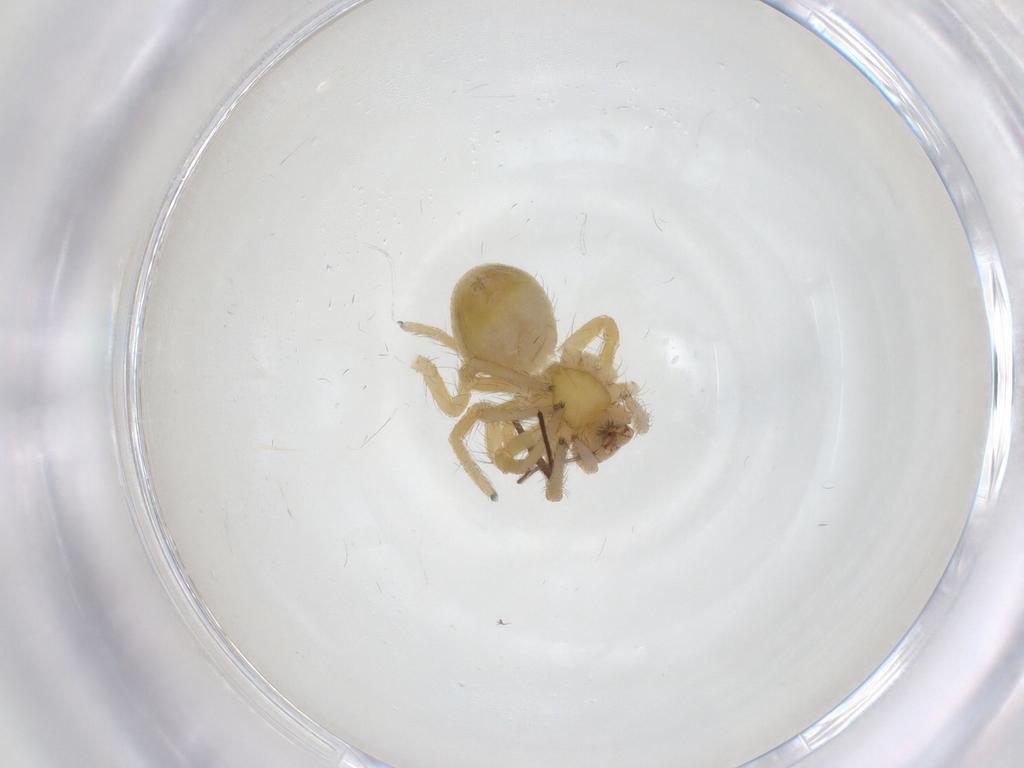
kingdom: Animalia
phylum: Arthropoda
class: Arachnida
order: Araneae
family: Mimetidae
